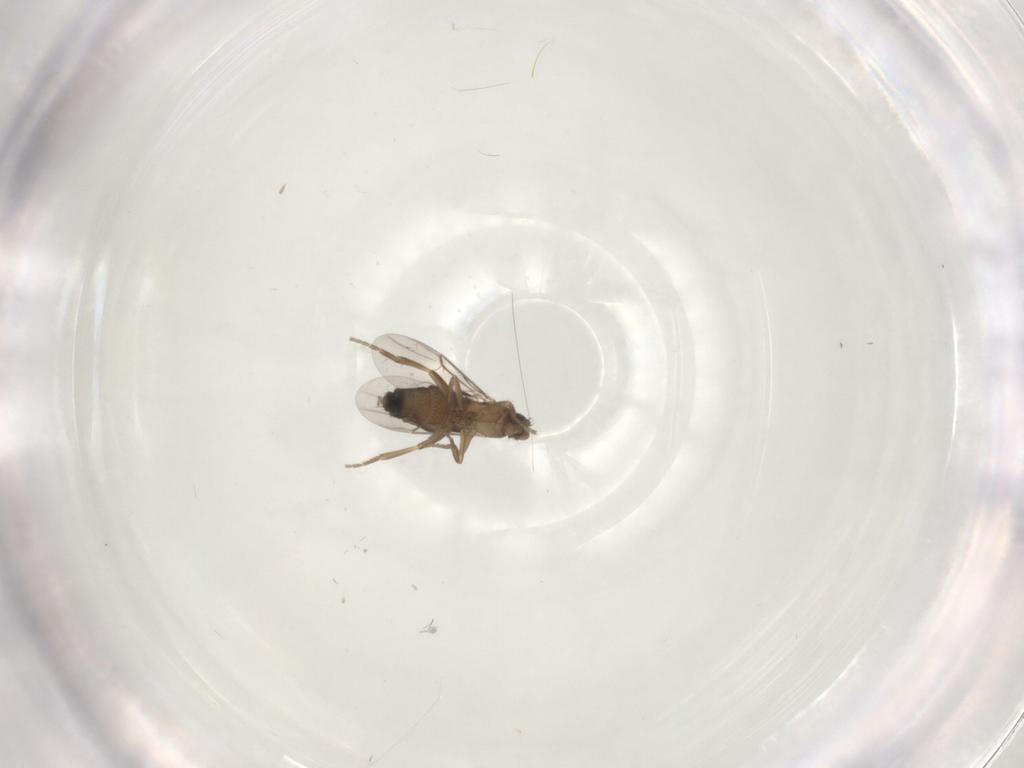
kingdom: Animalia
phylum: Arthropoda
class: Insecta
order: Diptera
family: Phoridae
